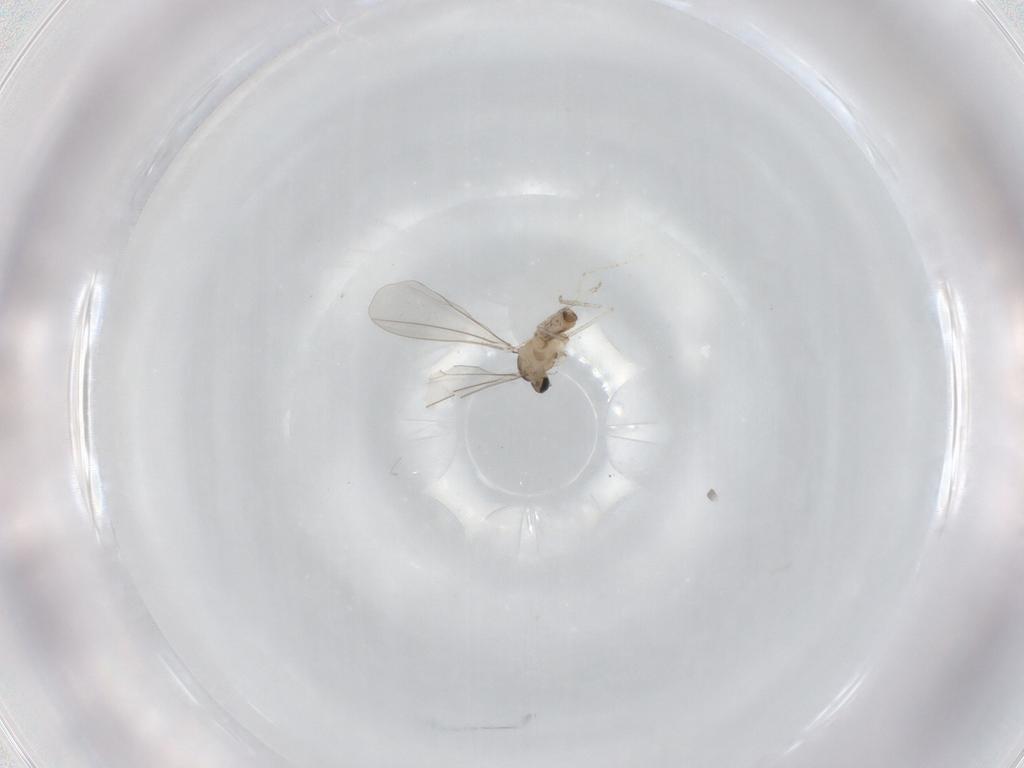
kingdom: Animalia
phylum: Arthropoda
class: Insecta
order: Diptera
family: Cecidomyiidae
